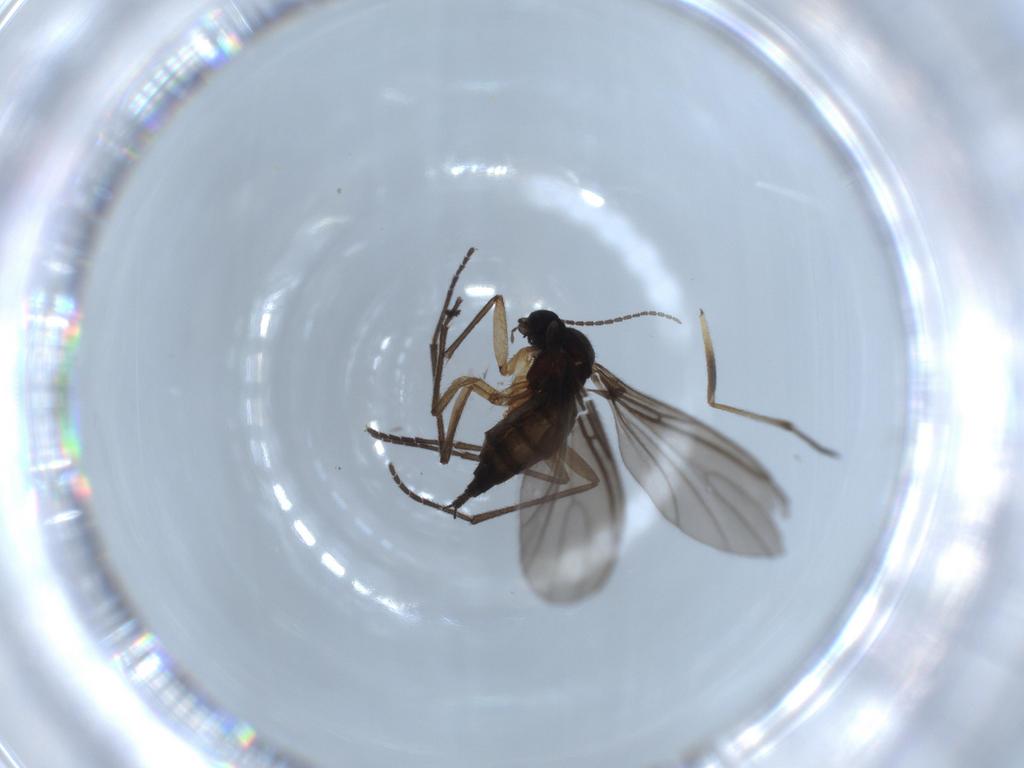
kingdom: Animalia
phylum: Arthropoda
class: Insecta
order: Diptera
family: Sciaridae
